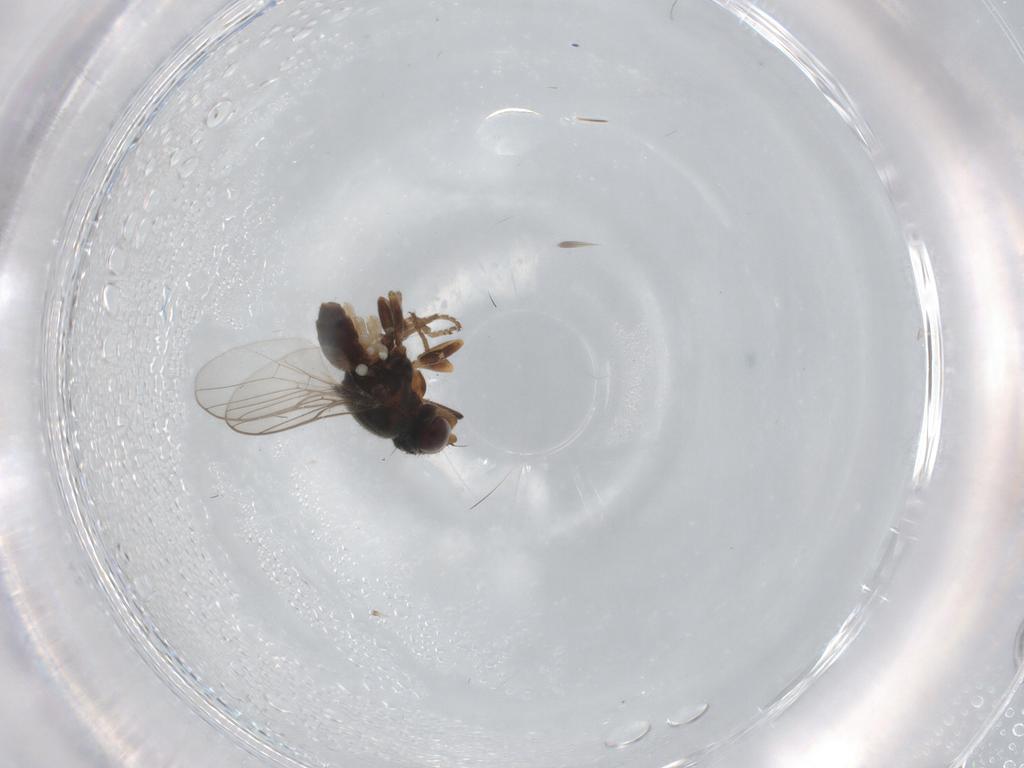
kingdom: Animalia
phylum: Arthropoda
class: Insecta
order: Diptera
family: Chloropidae
